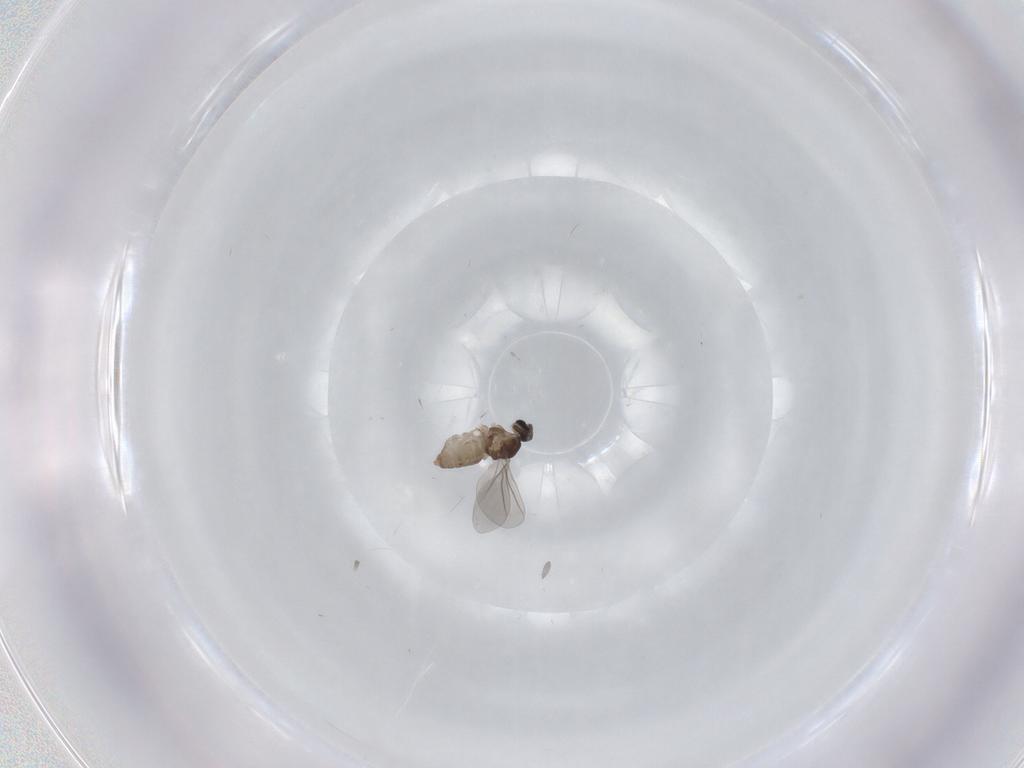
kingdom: Animalia
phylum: Arthropoda
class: Insecta
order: Diptera
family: Cecidomyiidae
